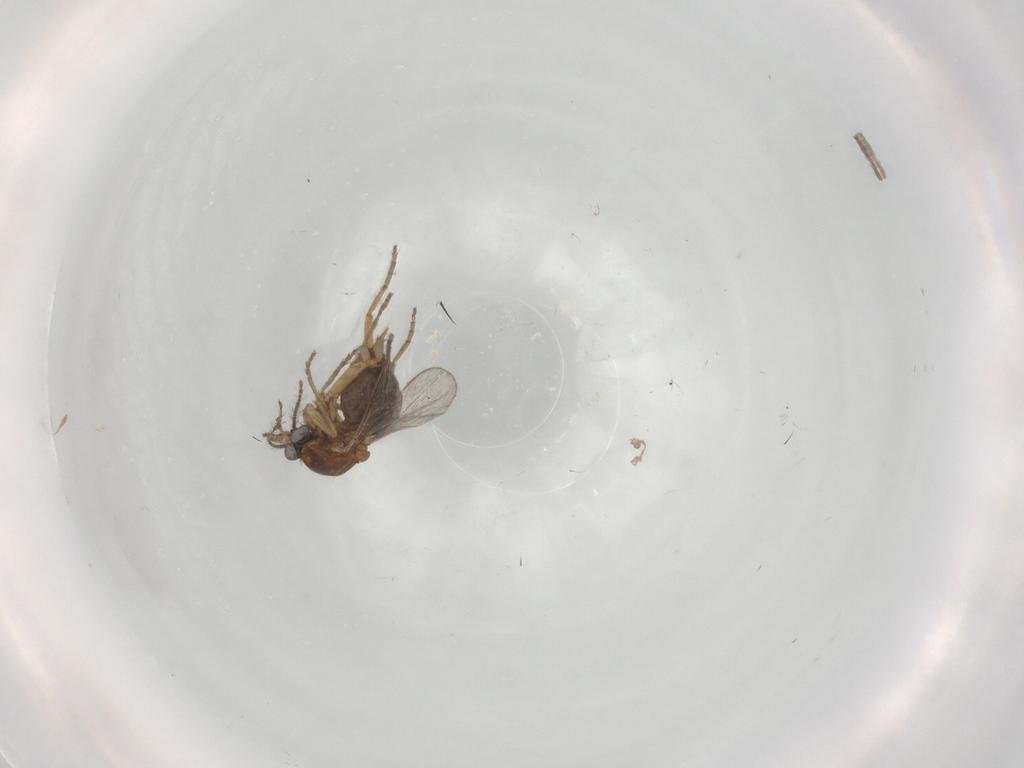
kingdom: Animalia
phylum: Arthropoda
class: Insecta
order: Diptera
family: Ceratopogonidae
